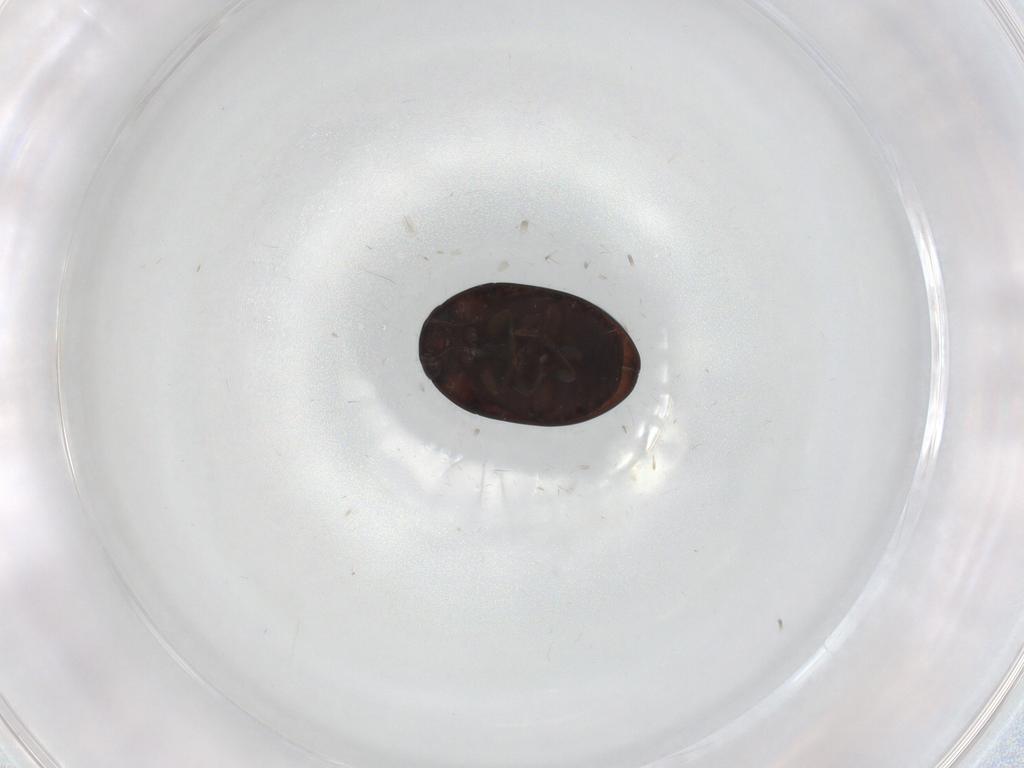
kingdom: Animalia
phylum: Arthropoda
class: Insecta
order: Coleoptera
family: Phalacridae
